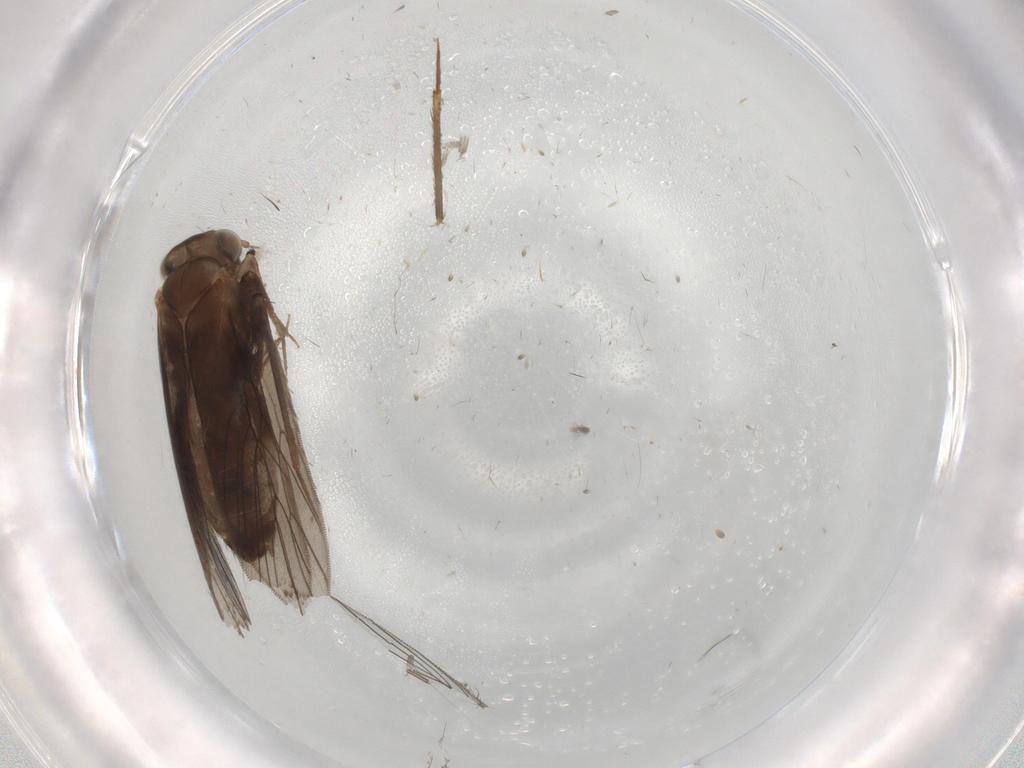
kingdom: Animalia
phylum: Arthropoda
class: Insecta
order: Psocodea
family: Lepidopsocidae
